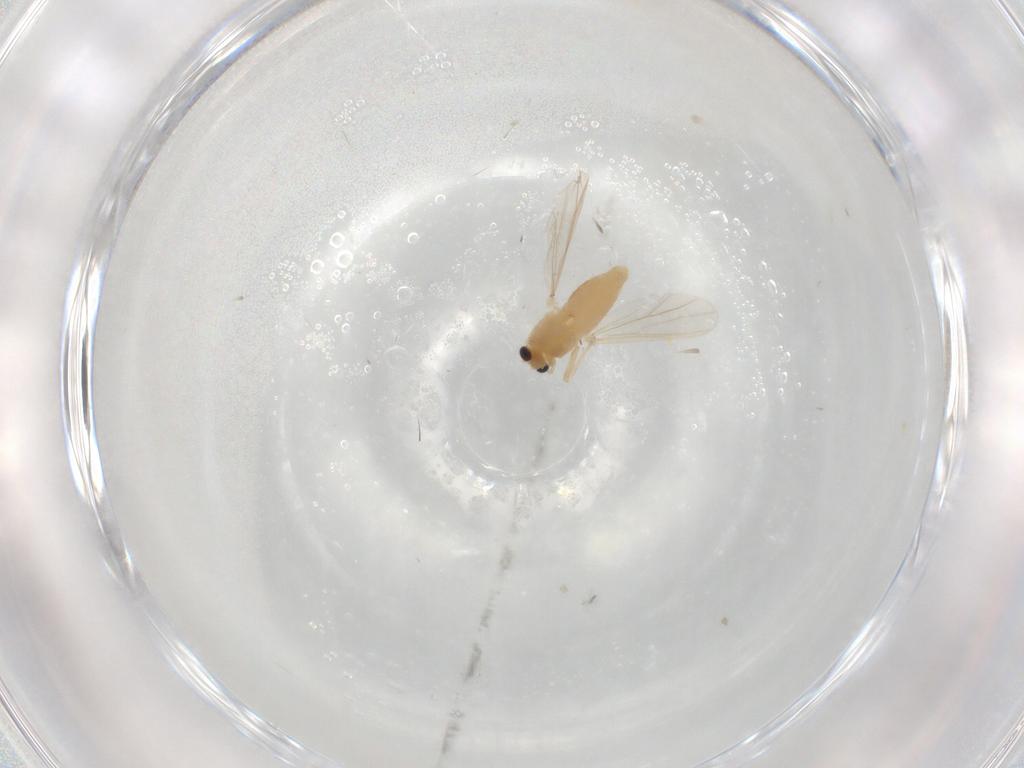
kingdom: Animalia
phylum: Arthropoda
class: Insecta
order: Diptera
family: Chironomidae
